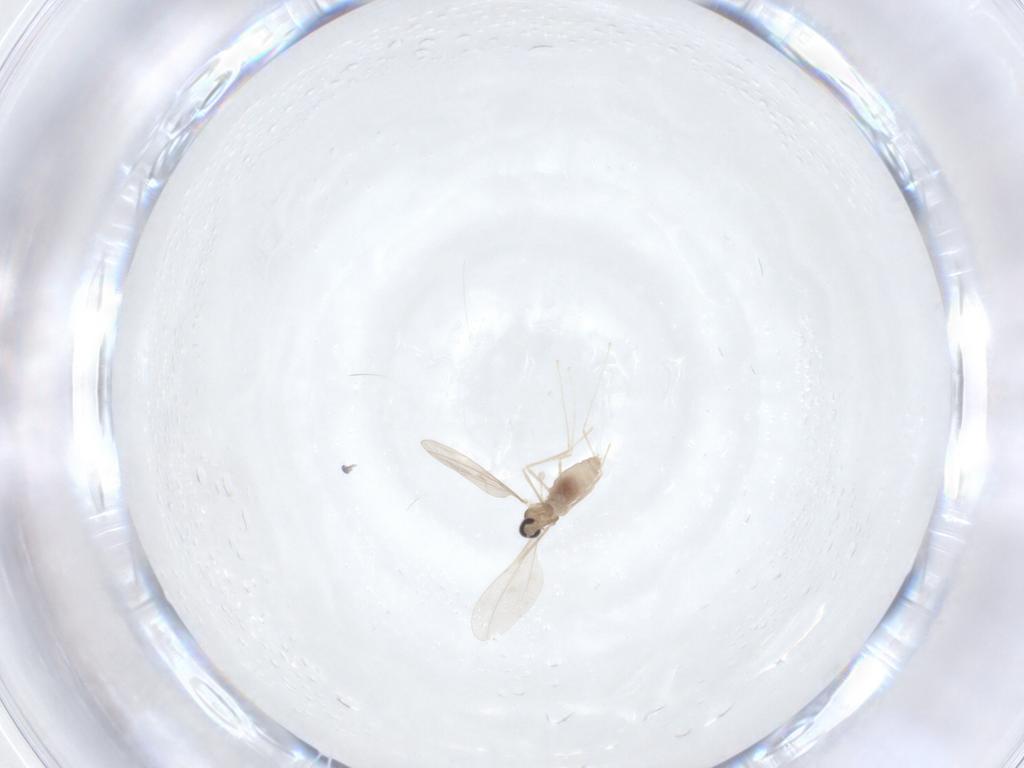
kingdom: Animalia
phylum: Arthropoda
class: Insecta
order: Diptera
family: Cecidomyiidae
